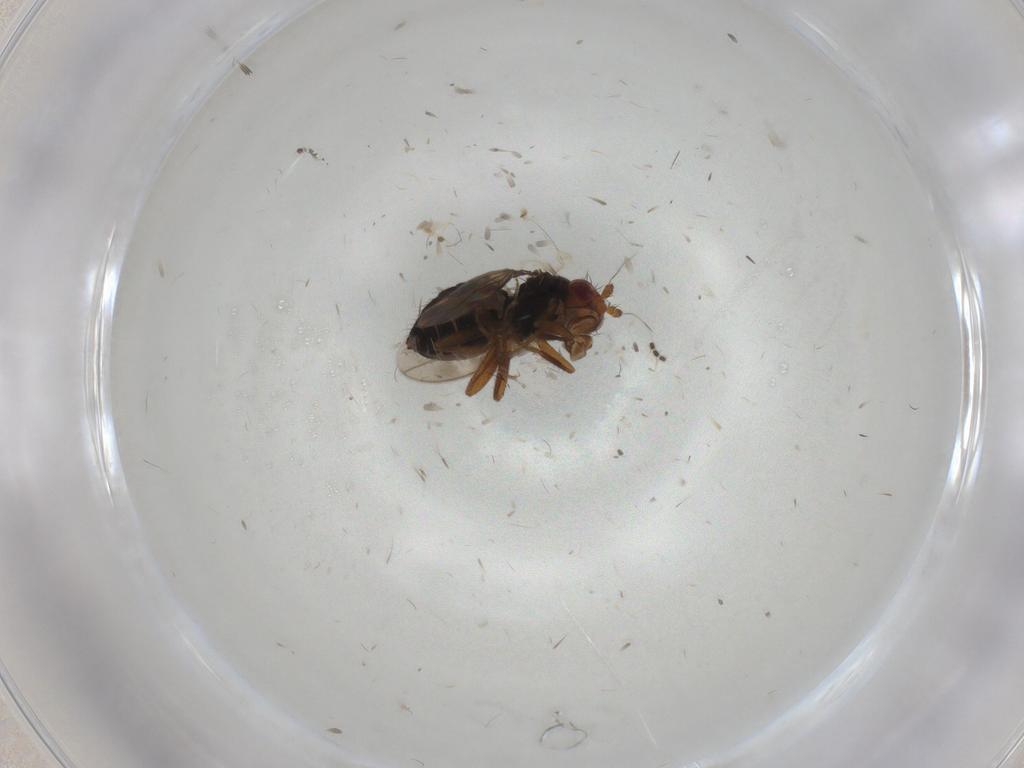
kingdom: Animalia
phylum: Arthropoda
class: Insecta
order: Diptera
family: Sphaeroceridae
